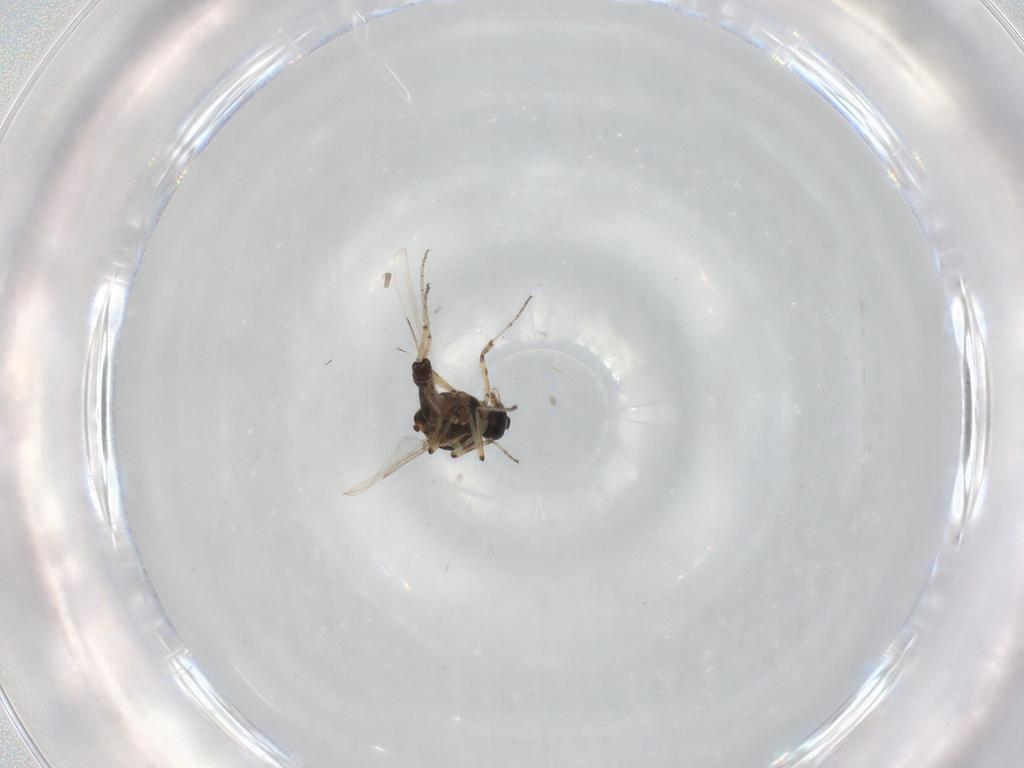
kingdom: Animalia
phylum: Arthropoda
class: Insecta
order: Diptera
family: Ceratopogonidae
